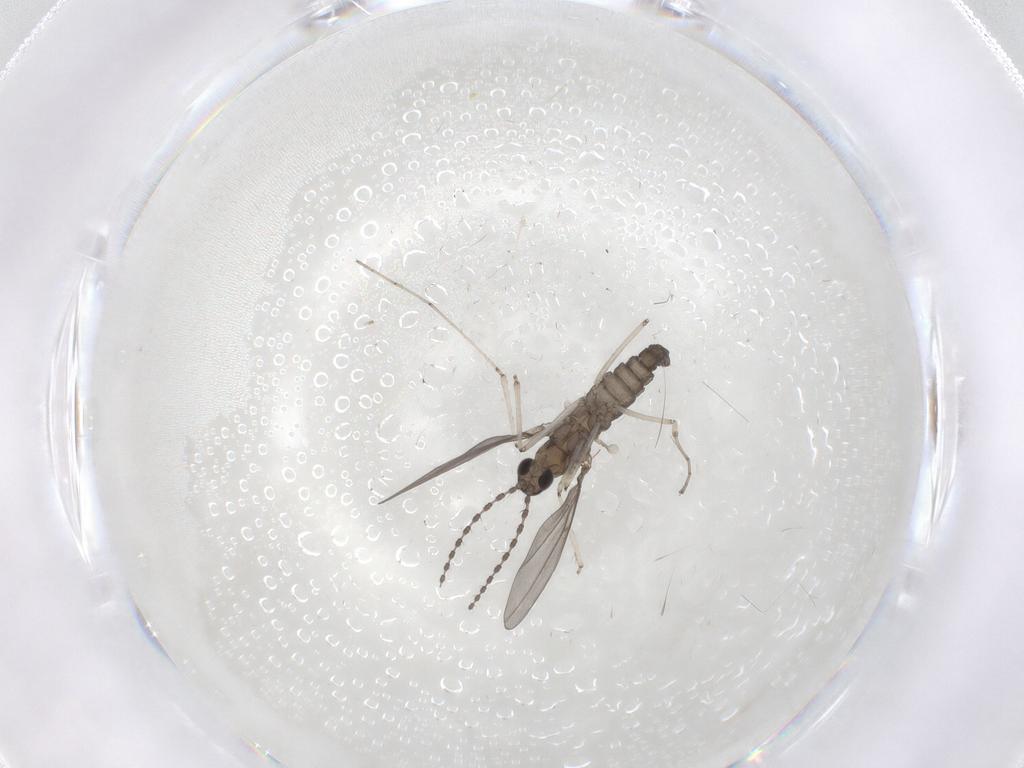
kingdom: Animalia
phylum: Arthropoda
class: Insecta
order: Diptera
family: Cecidomyiidae
